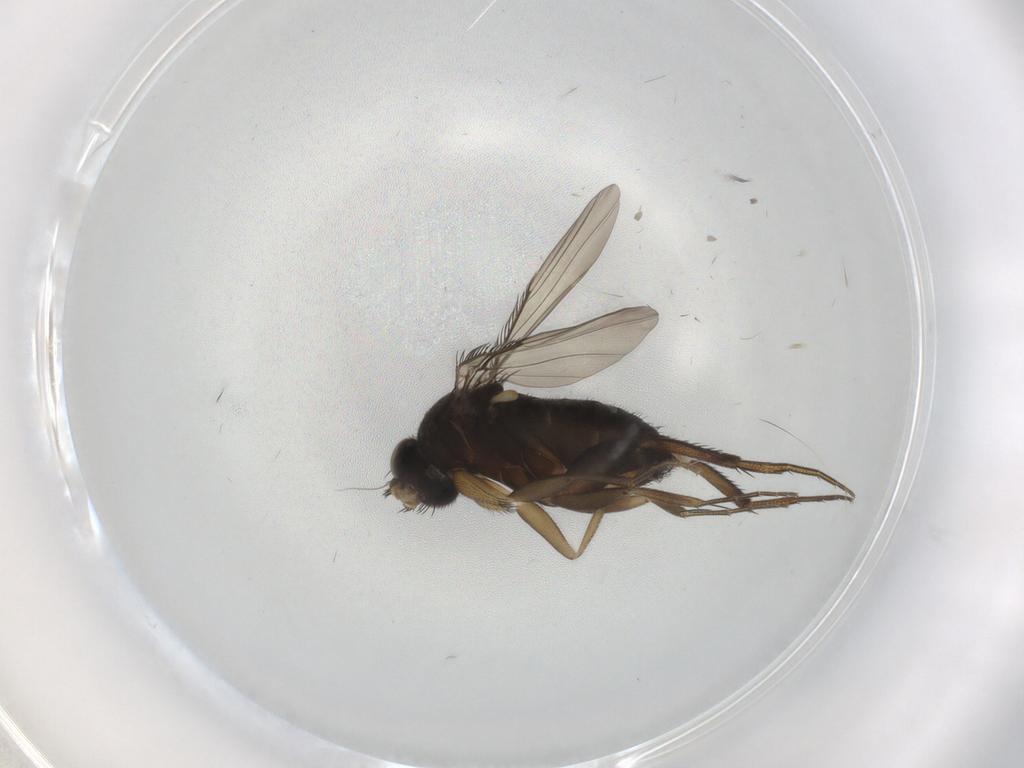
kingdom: Animalia
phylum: Arthropoda
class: Insecta
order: Diptera
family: Phoridae
